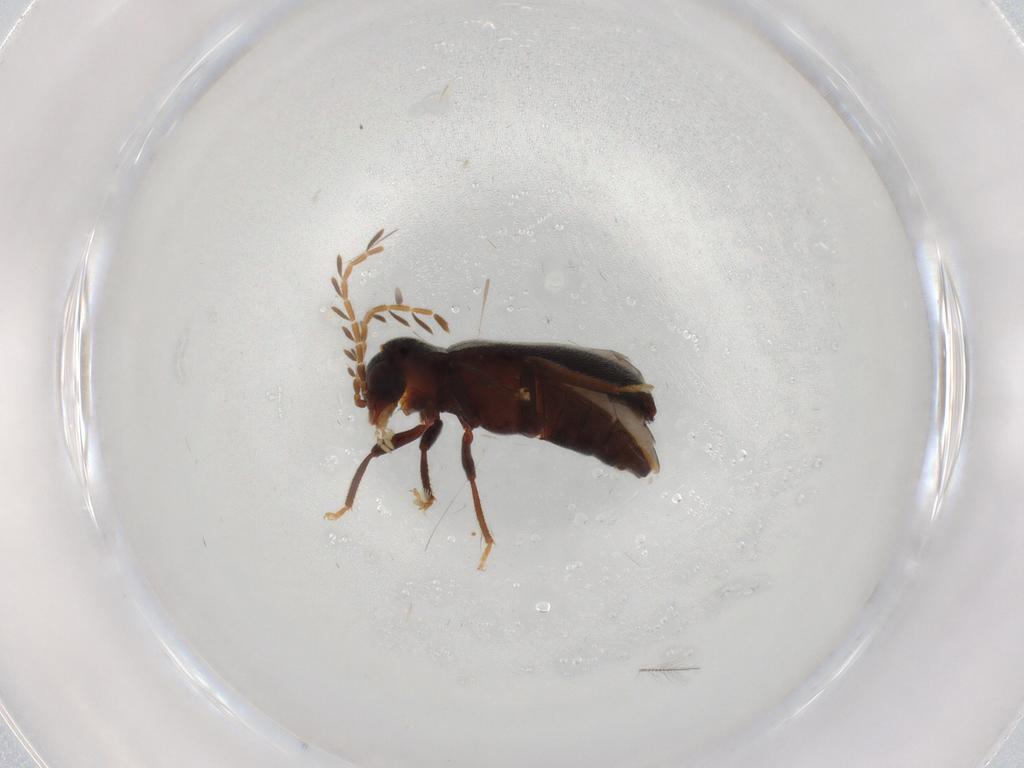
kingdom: Animalia
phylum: Arthropoda
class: Insecta
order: Coleoptera
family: Ptilodactylidae
